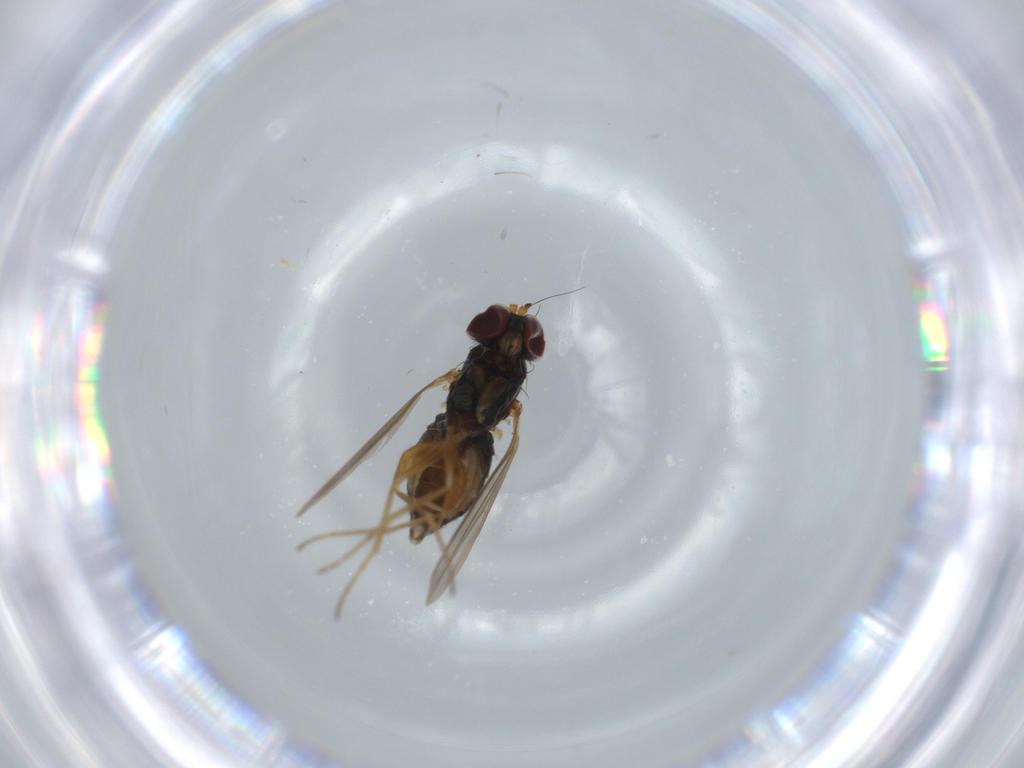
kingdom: Animalia
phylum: Arthropoda
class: Insecta
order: Diptera
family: Dolichopodidae
